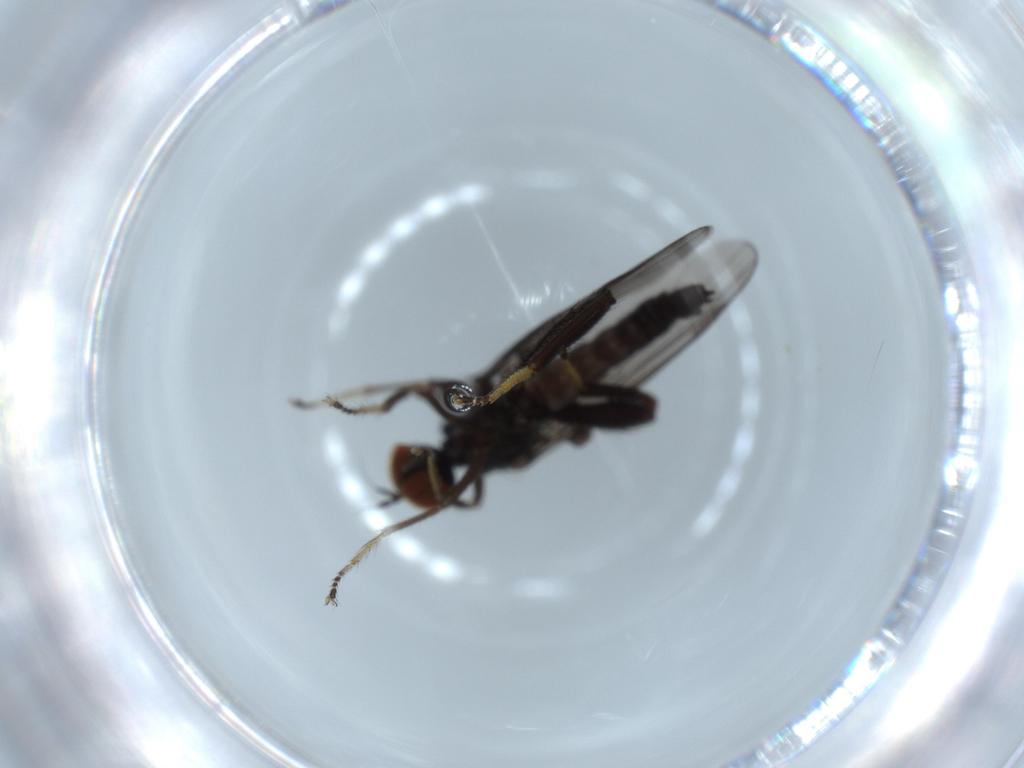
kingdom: Animalia
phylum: Arthropoda
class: Insecta
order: Diptera
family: Hybotidae
